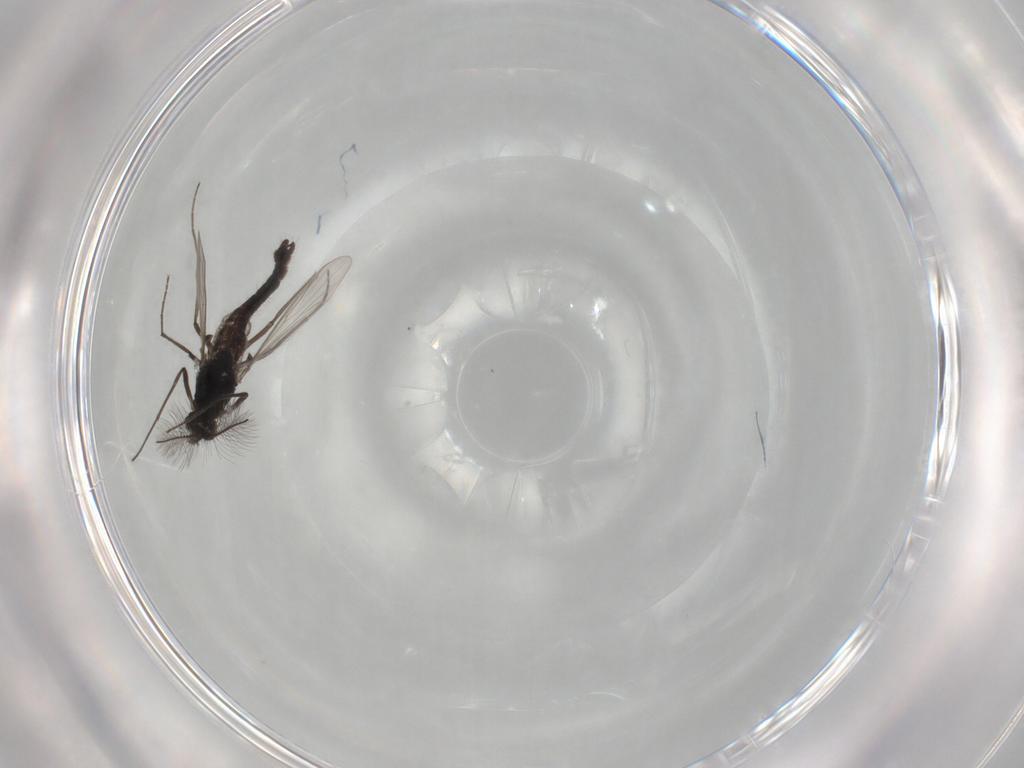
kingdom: Animalia
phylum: Arthropoda
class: Insecta
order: Diptera
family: Chironomidae
